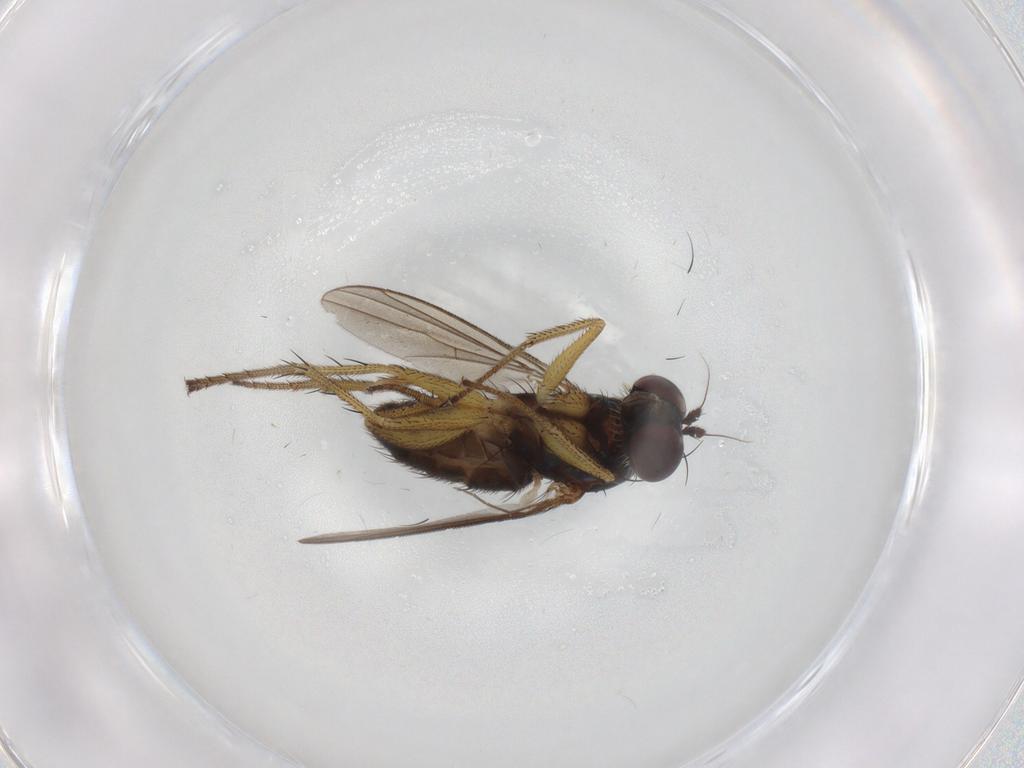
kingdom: Animalia
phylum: Arthropoda
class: Insecta
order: Diptera
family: Dolichopodidae
